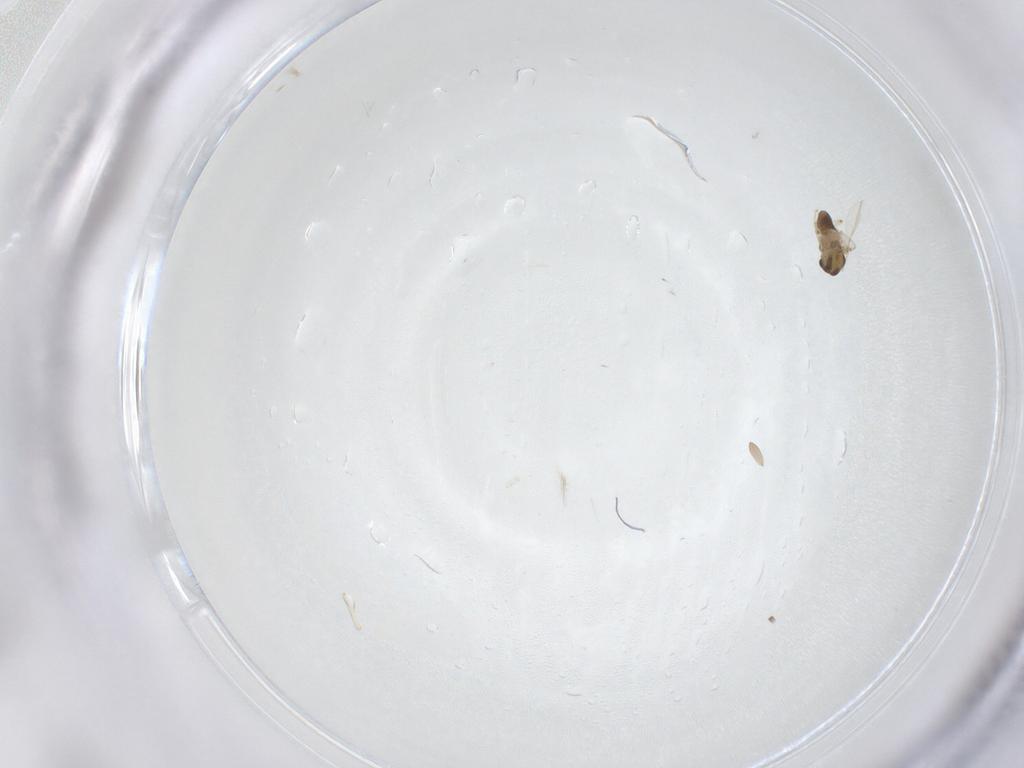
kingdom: Animalia
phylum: Arthropoda
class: Insecta
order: Diptera
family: Chironomidae
